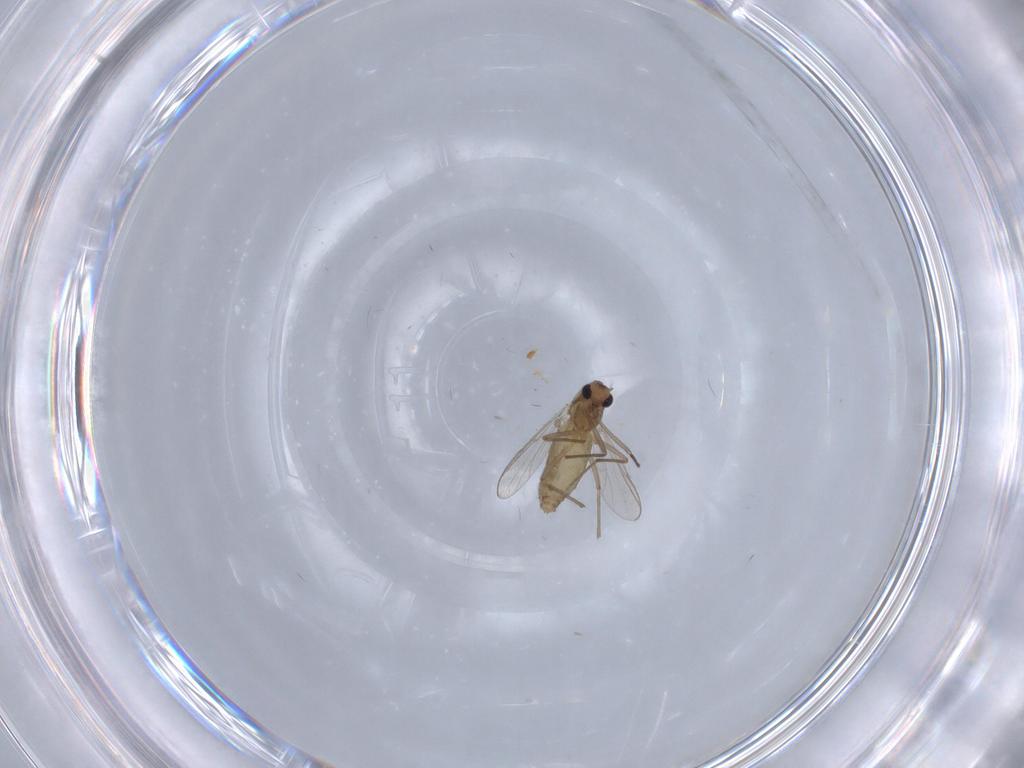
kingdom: Animalia
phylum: Arthropoda
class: Insecta
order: Diptera
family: Chironomidae
